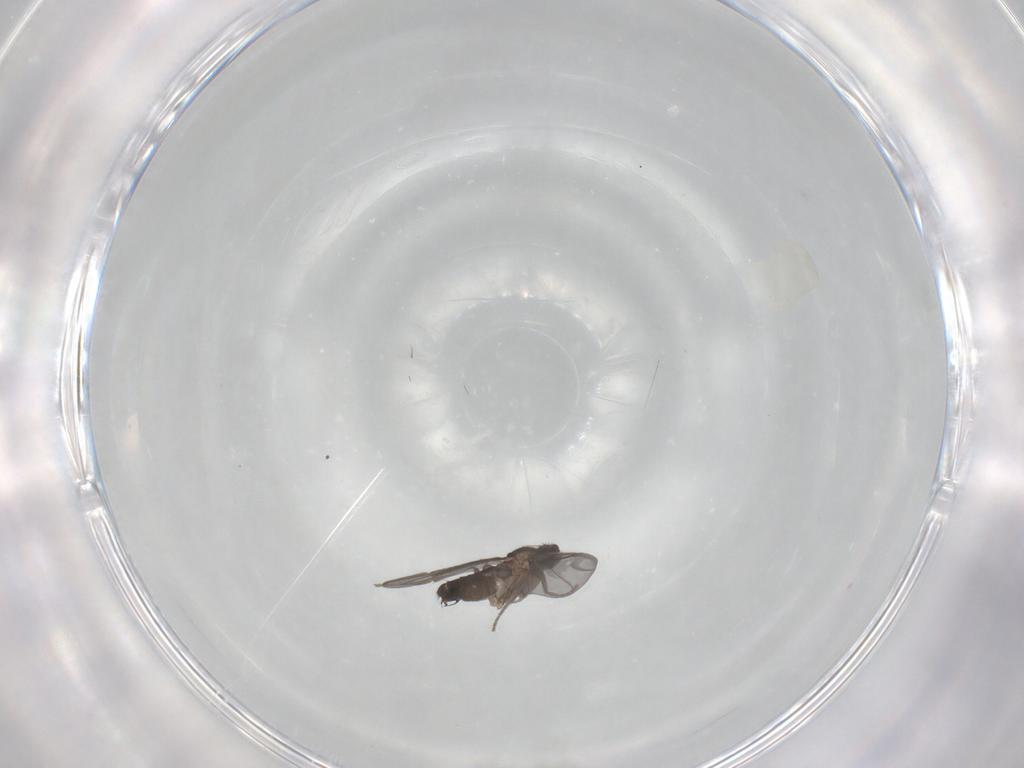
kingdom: Animalia
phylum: Arthropoda
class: Insecta
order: Diptera
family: Phoridae
